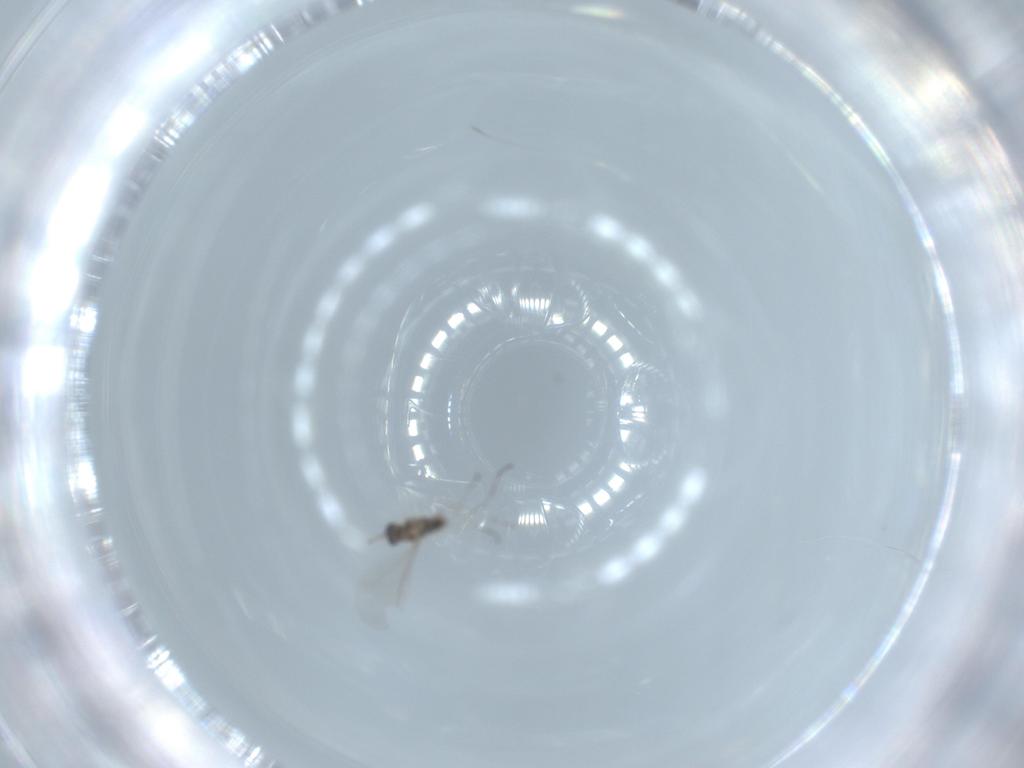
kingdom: Animalia
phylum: Arthropoda
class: Insecta
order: Diptera
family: Cecidomyiidae
